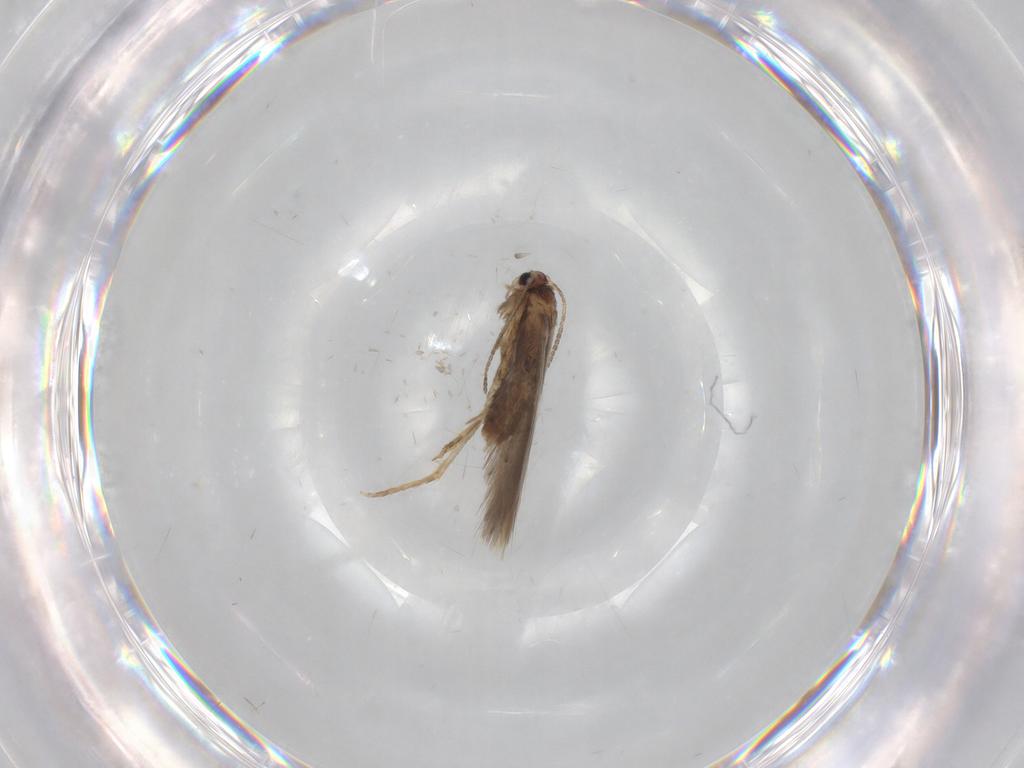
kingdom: Animalia
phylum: Arthropoda
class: Insecta
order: Lepidoptera
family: Nepticulidae
